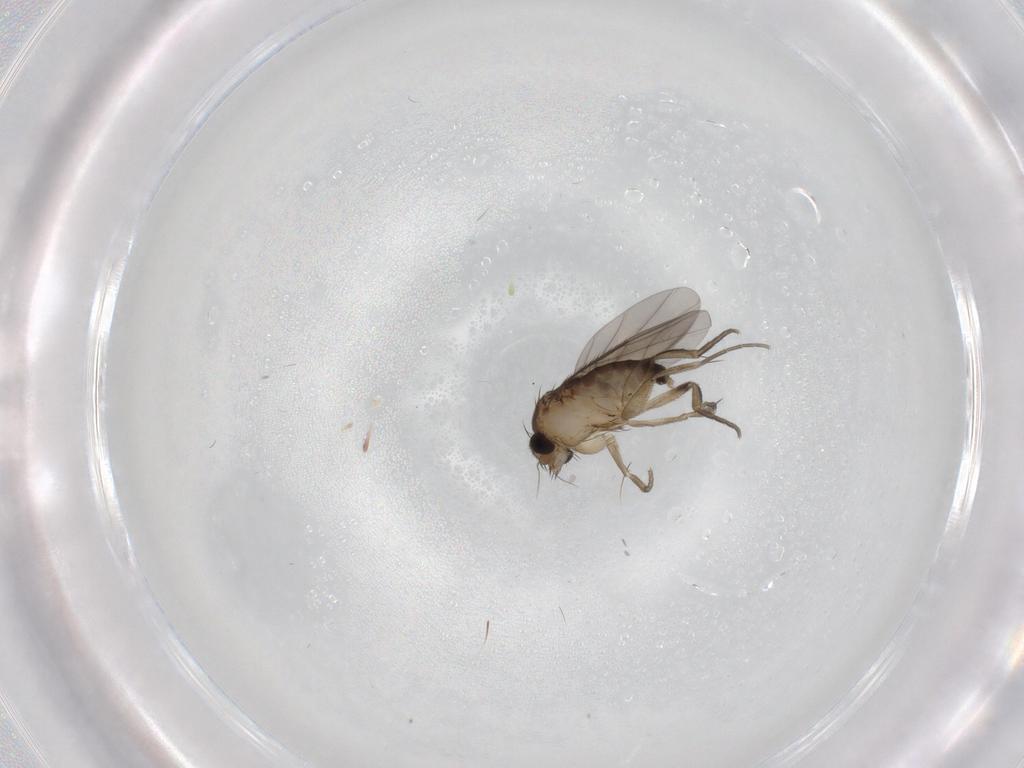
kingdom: Animalia
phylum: Arthropoda
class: Insecta
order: Diptera
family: Phoridae
